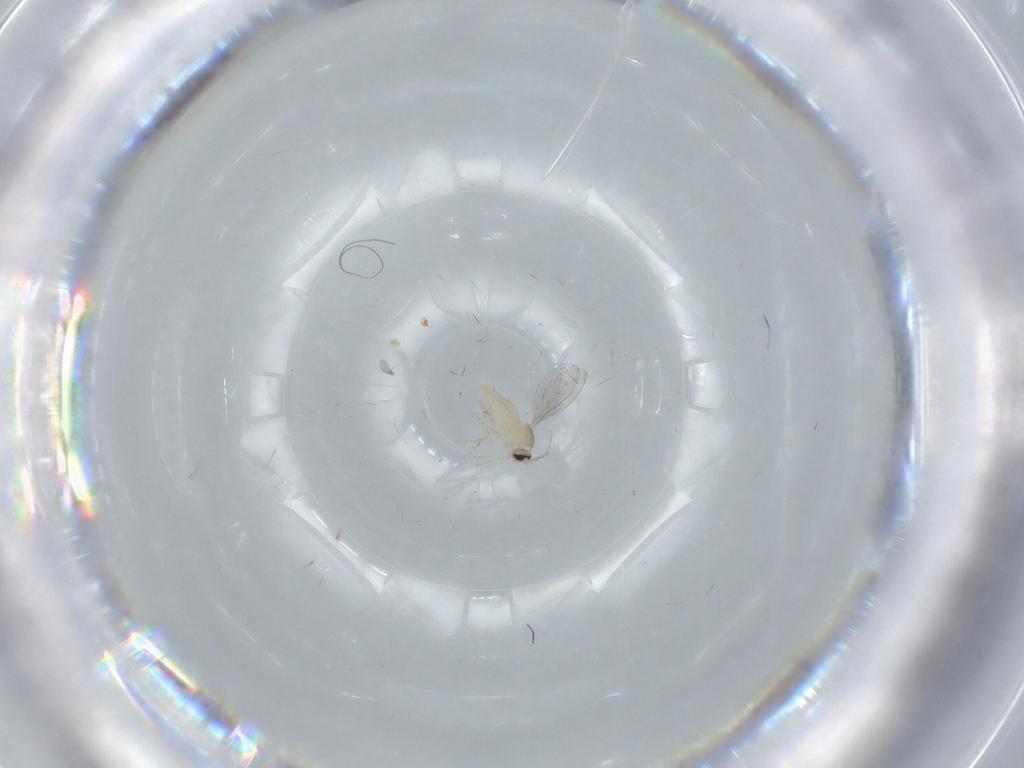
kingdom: Animalia
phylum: Arthropoda
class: Insecta
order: Diptera
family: Cecidomyiidae
